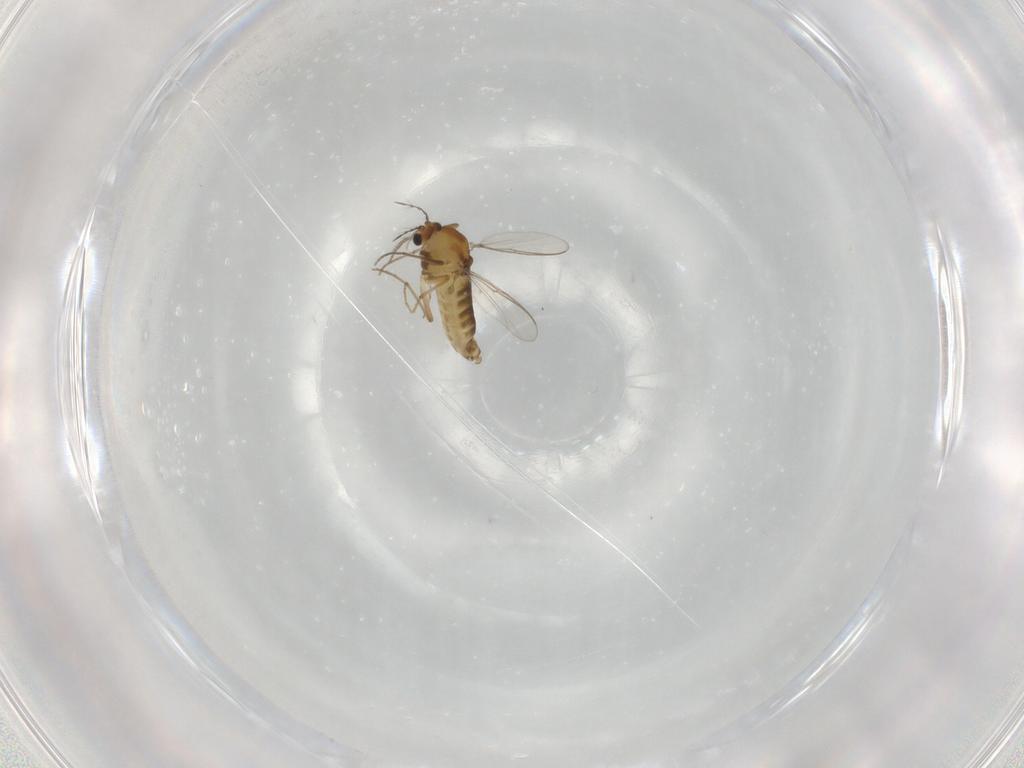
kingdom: Animalia
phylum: Arthropoda
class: Insecta
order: Diptera
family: Chironomidae
